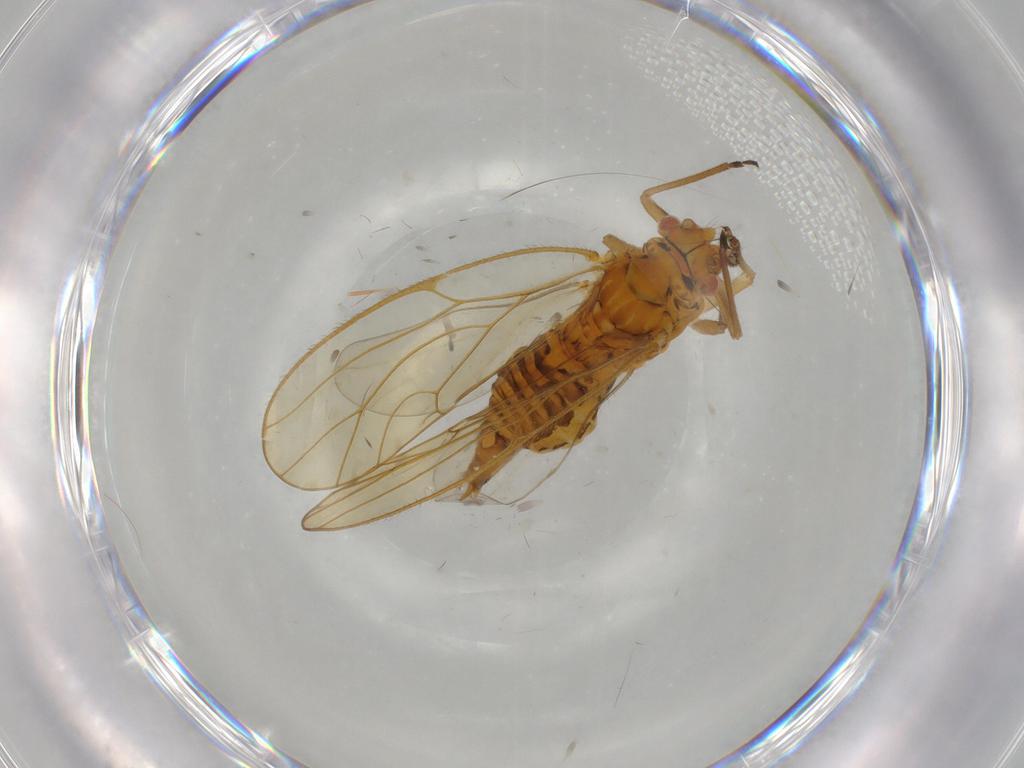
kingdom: Animalia
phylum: Arthropoda
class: Insecta
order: Hemiptera
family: Psyllidae
